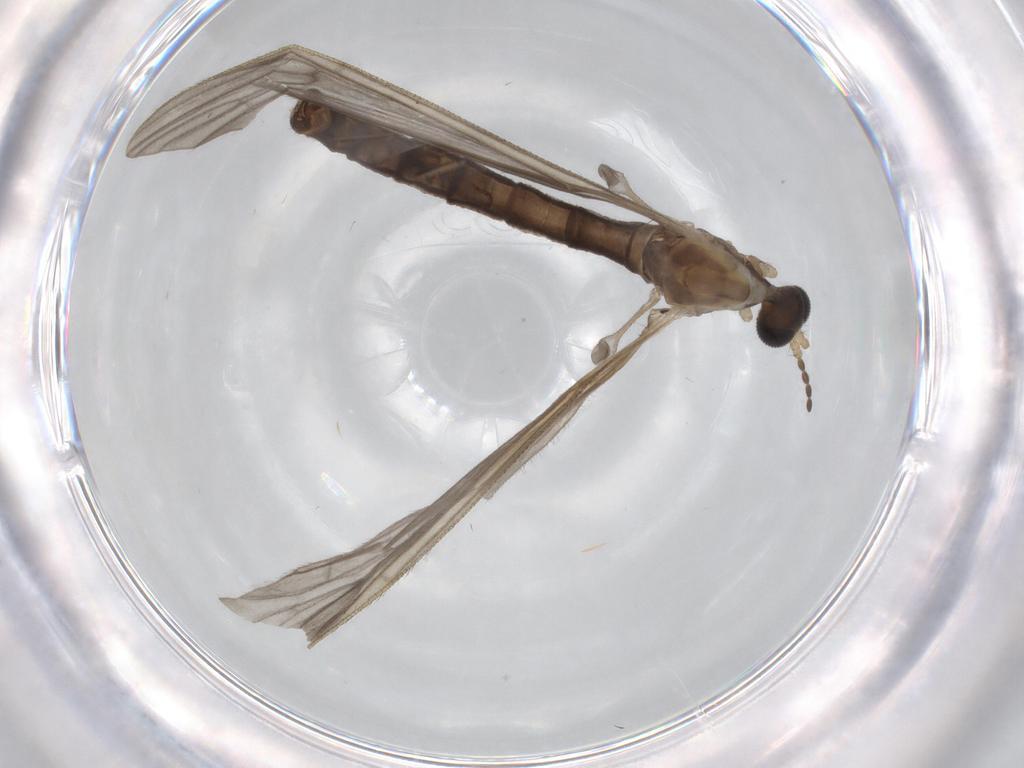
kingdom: Animalia
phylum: Arthropoda
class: Insecta
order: Diptera
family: Limoniidae
